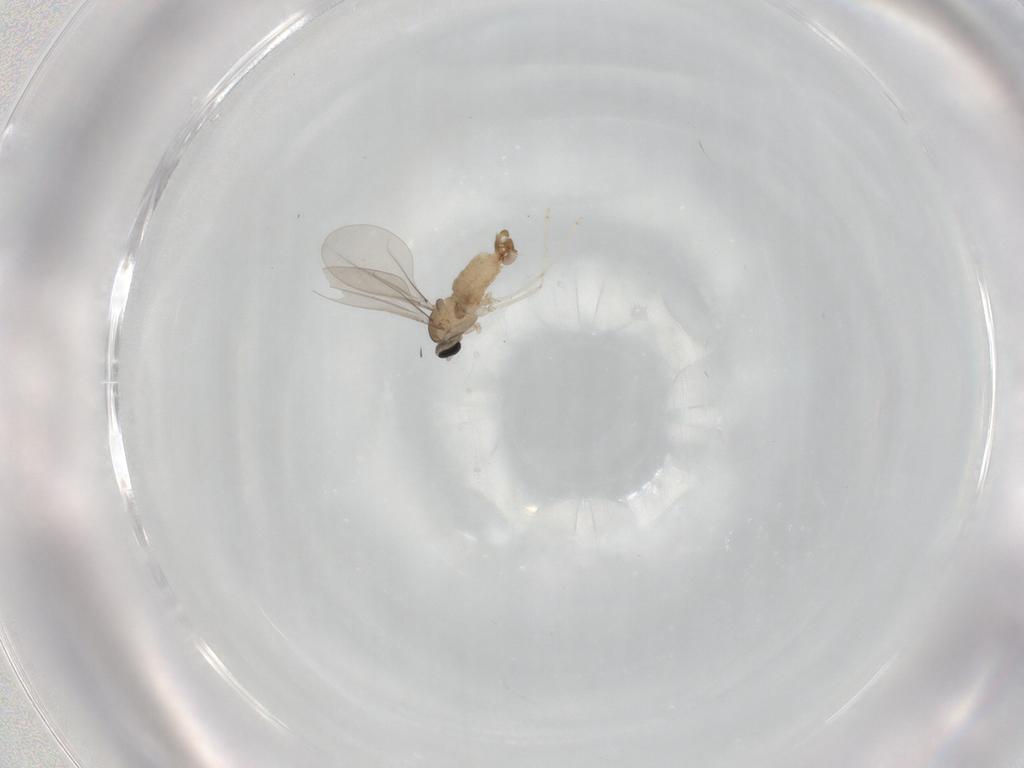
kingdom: Animalia
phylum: Arthropoda
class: Insecta
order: Diptera
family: Cecidomyiidae
